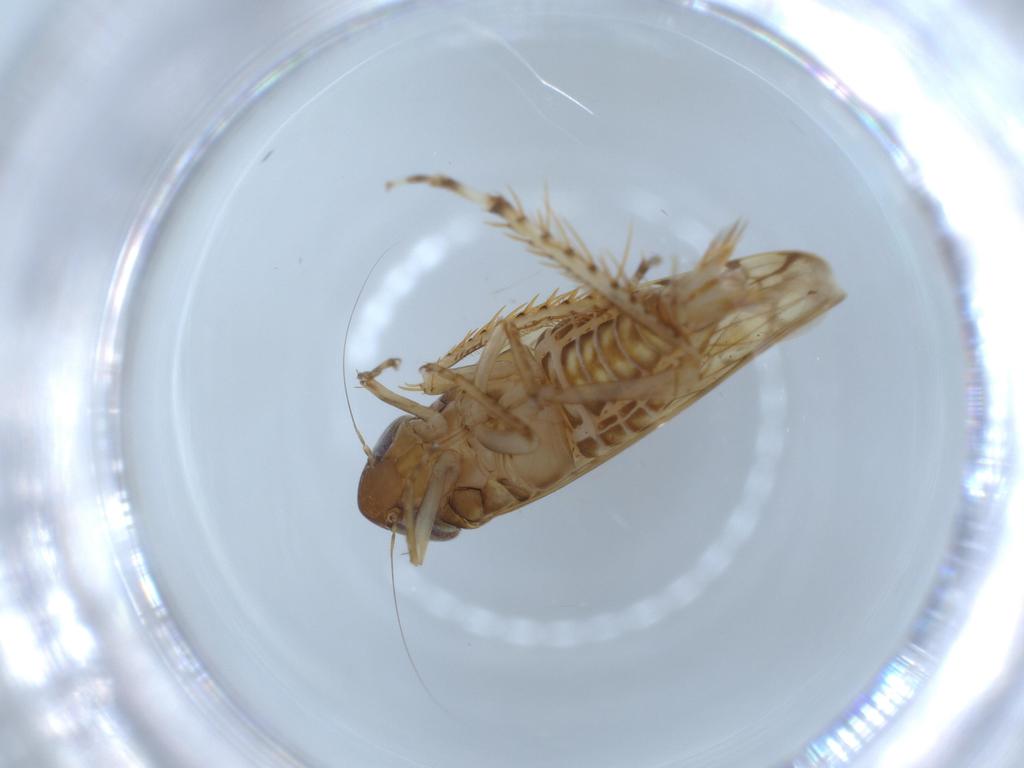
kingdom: Animalia
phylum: Arthropoda
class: Insecta
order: Hemiptera
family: Cicadellidae
